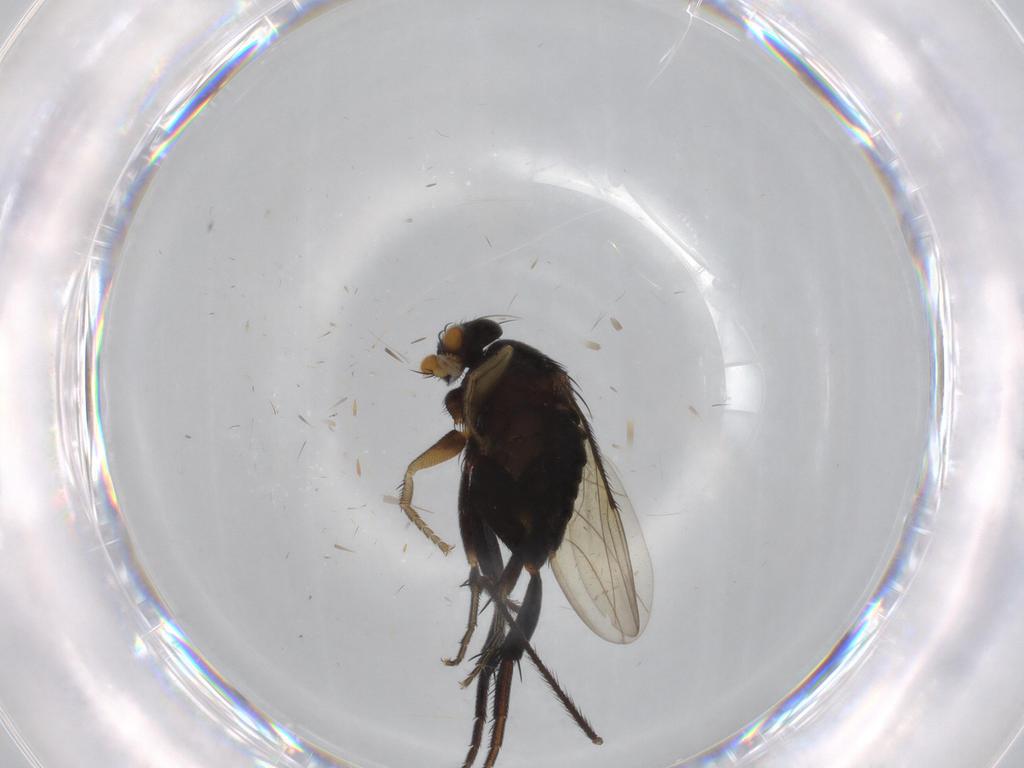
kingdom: Animalia
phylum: Arthropoda
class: Insecta
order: Diptera
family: Phoridae
